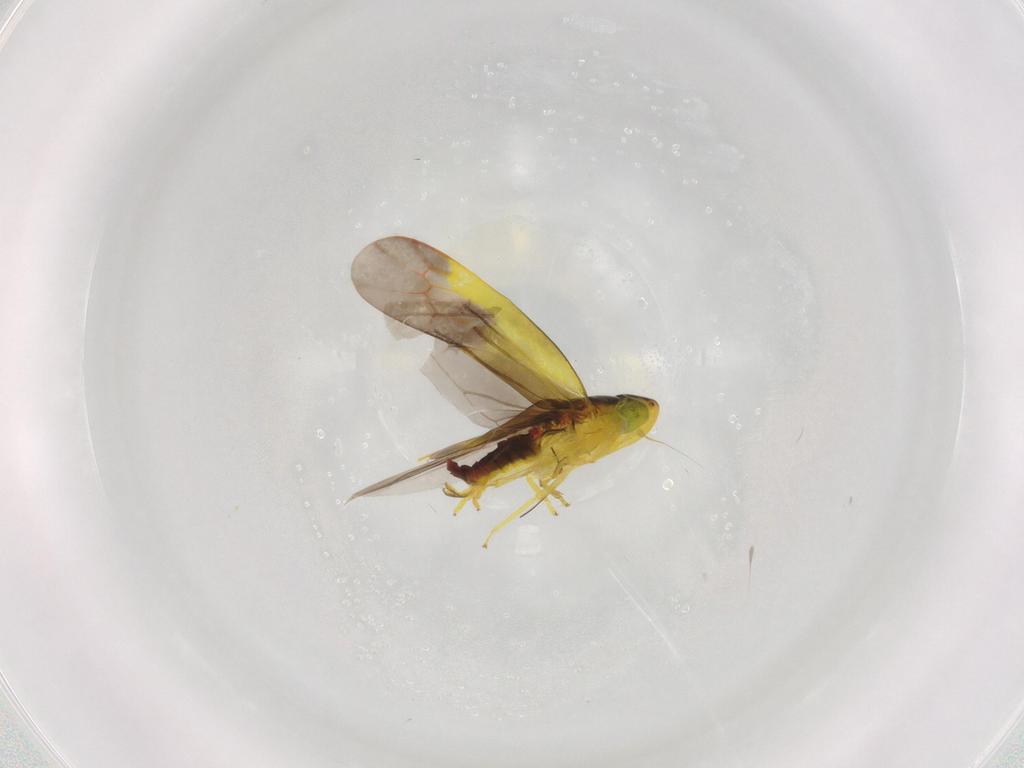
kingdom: Animalia
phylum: Arthropoda
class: Insecta
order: Hemiptera
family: Cicadellidae
